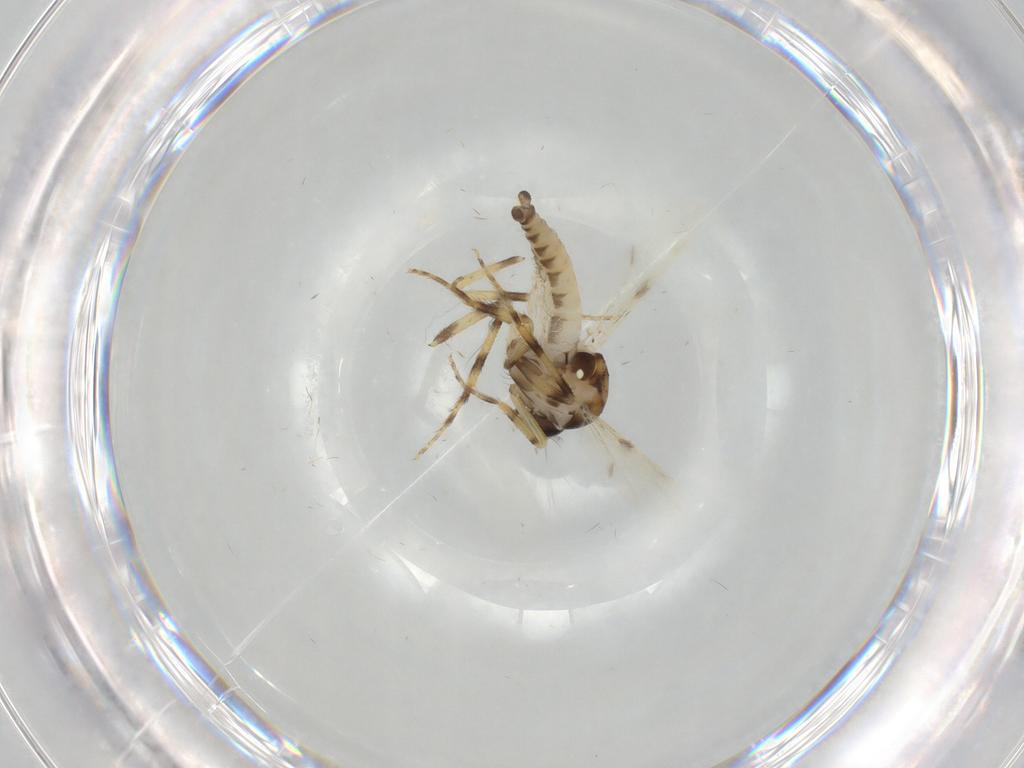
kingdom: Animalia
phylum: Arthropoda
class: Insecta
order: Diptera
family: Ceratopogonidae
